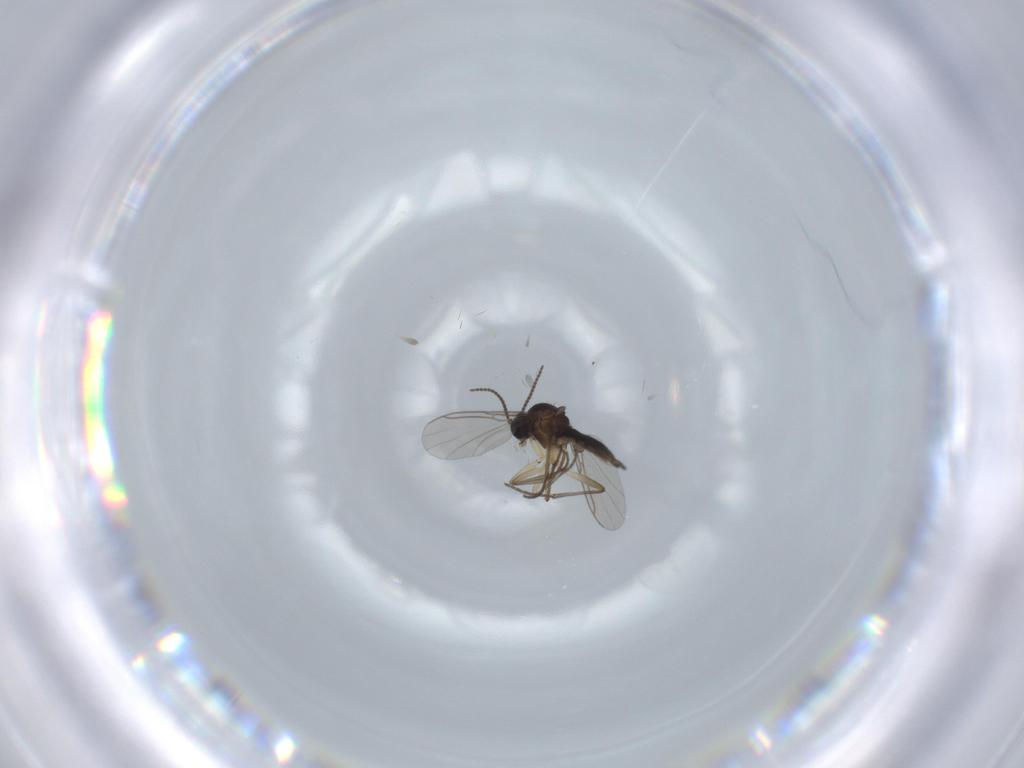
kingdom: Animalia
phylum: Arthropoda
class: Insecta
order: Diptera
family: Sciaridae
